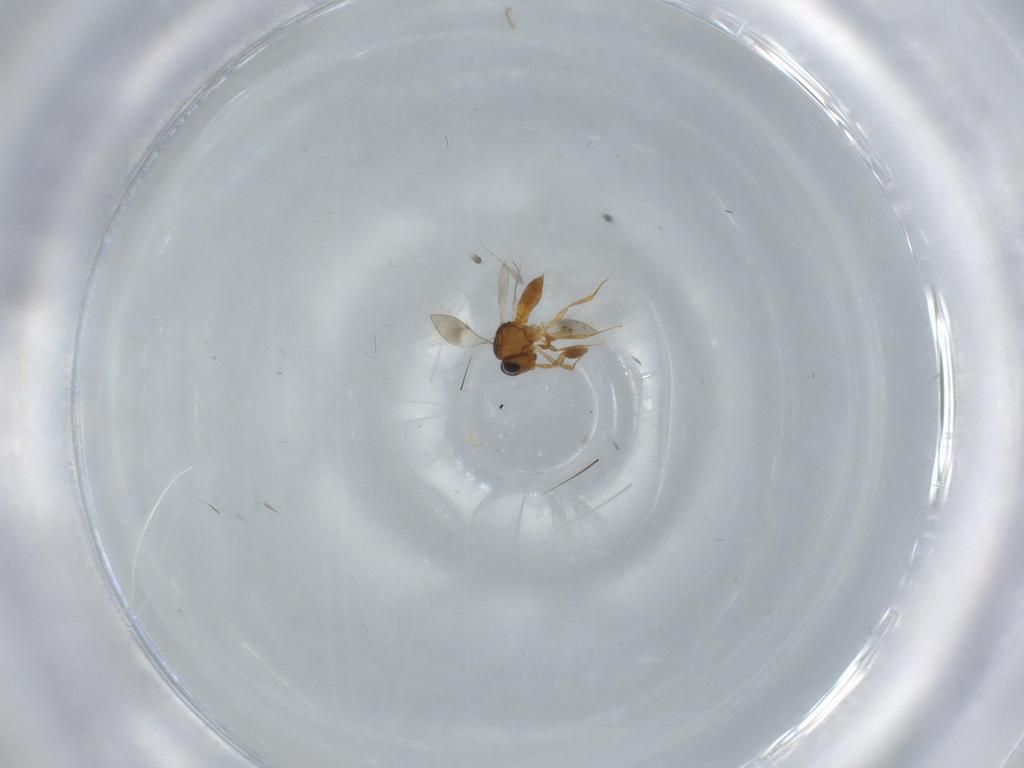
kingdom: Animalia
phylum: Arthropoda
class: Insecta
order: Hymenoptera
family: Scelionidae
